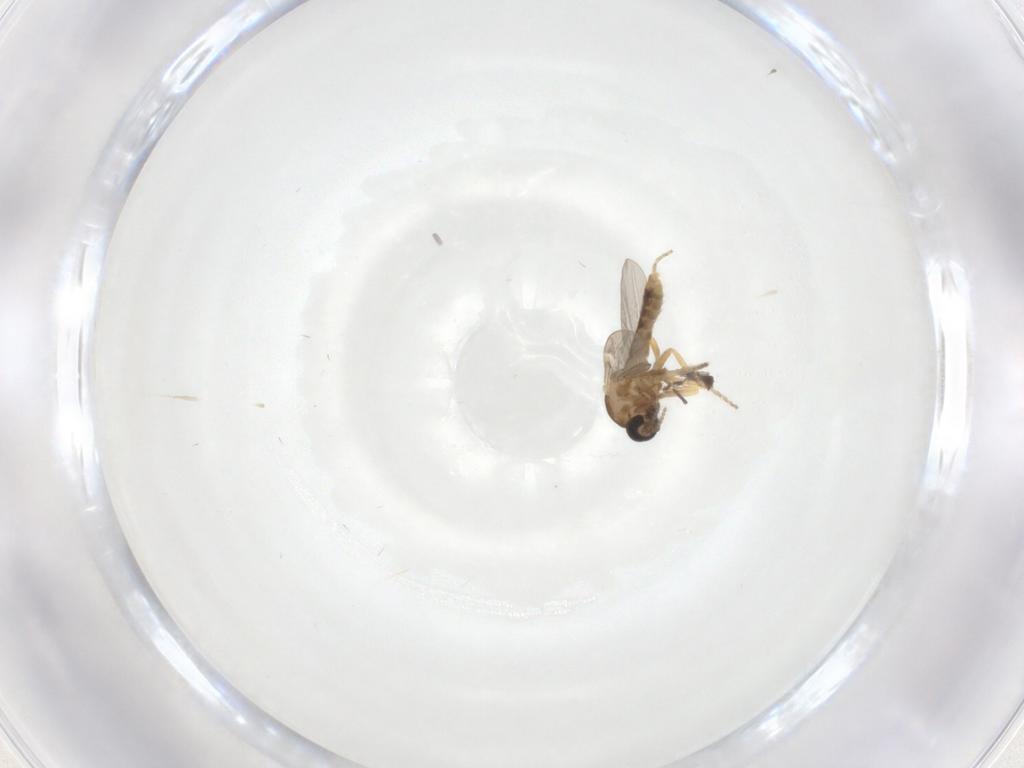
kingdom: Animalia
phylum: Arthropoda
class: Insecta
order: Diptera
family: Ceratopogonidae
